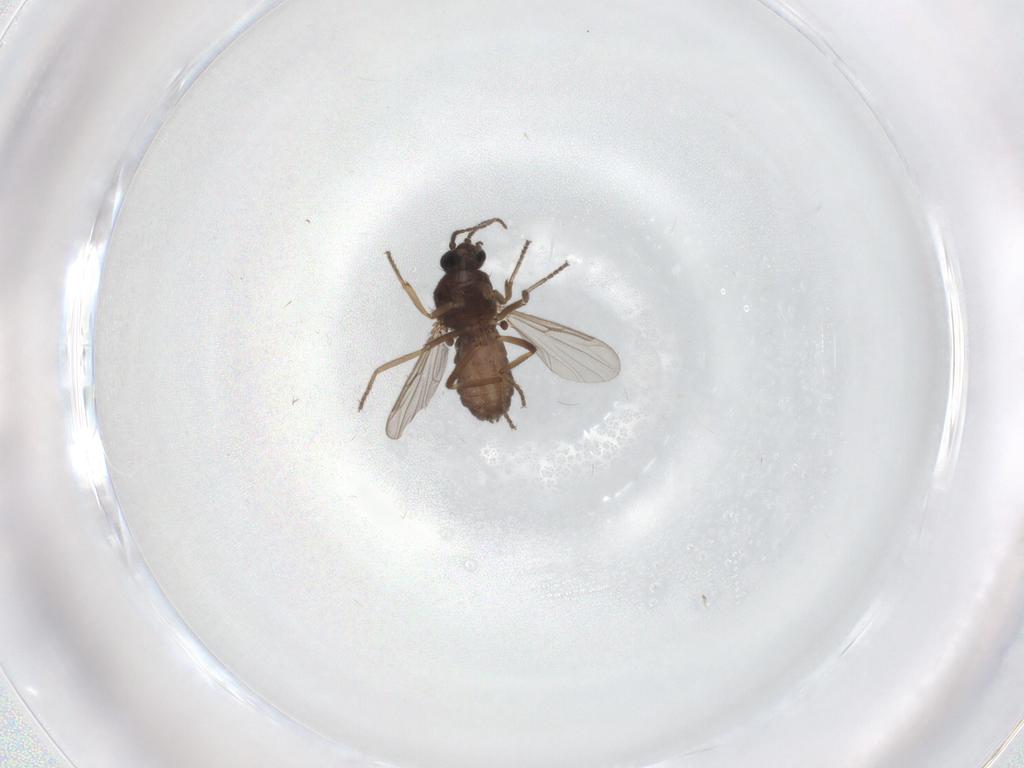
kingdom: Animalia
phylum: Arthropoda
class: Insecta
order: Diptera
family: Ceratopogonidae
